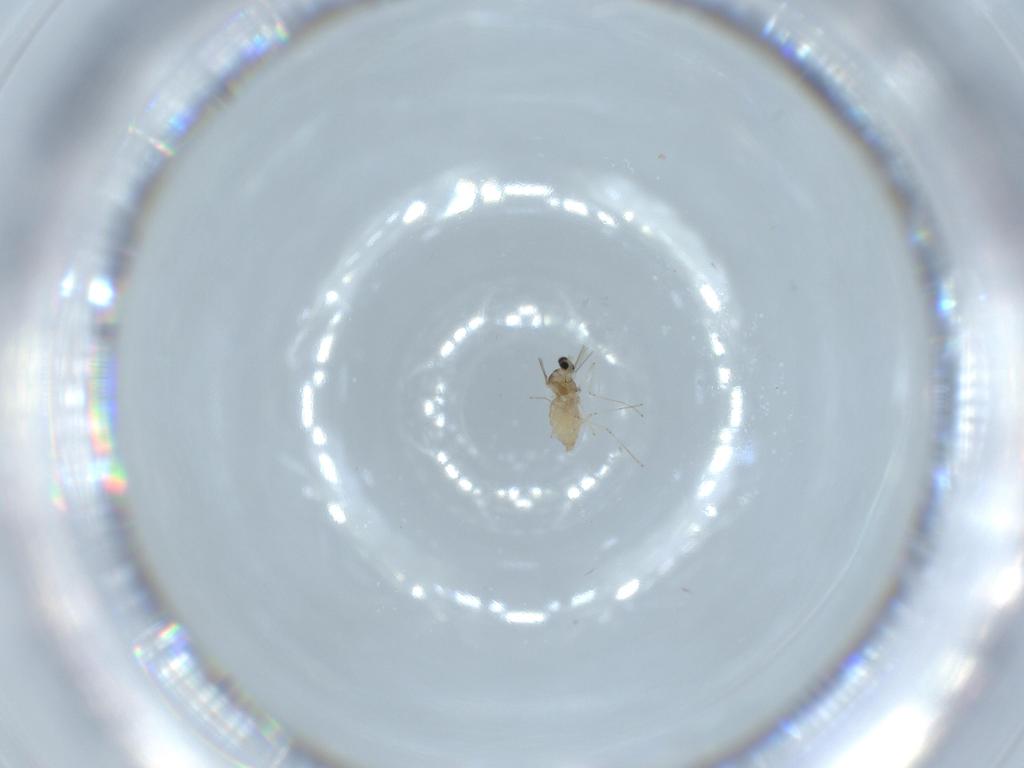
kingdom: Animalia
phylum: Arthropoda
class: Insecta
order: Diptera
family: Cecidomyiidae
